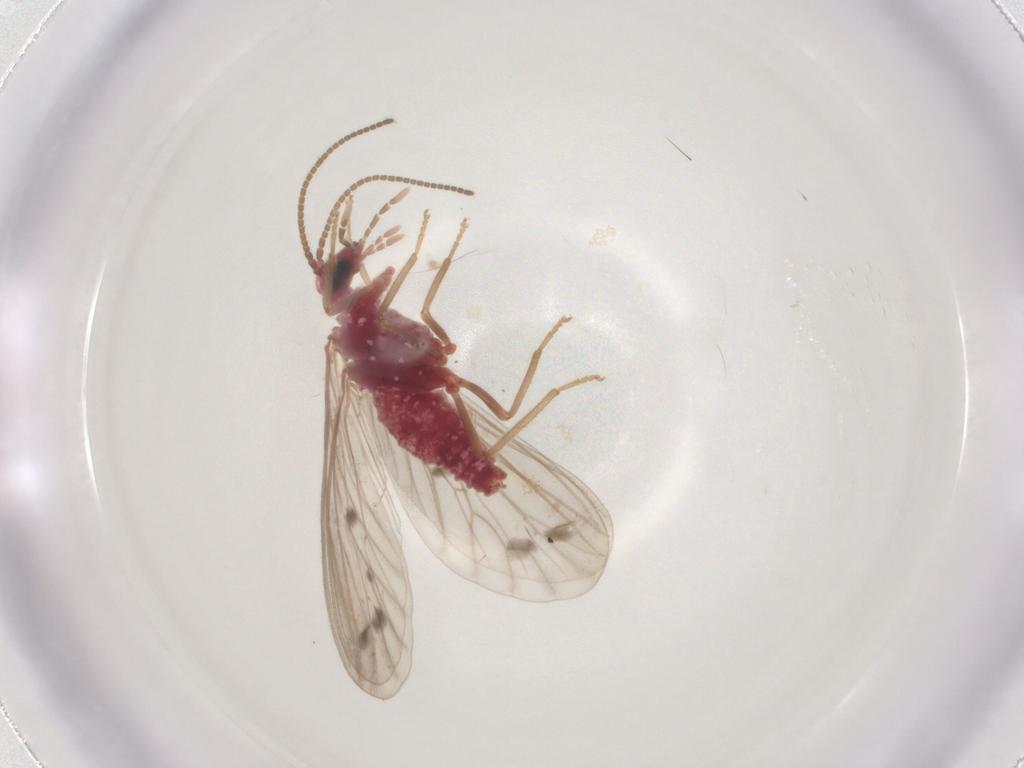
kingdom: Animalia
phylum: Arthropoda
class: Insecta
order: Neuroptera
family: Coniopterygidae
